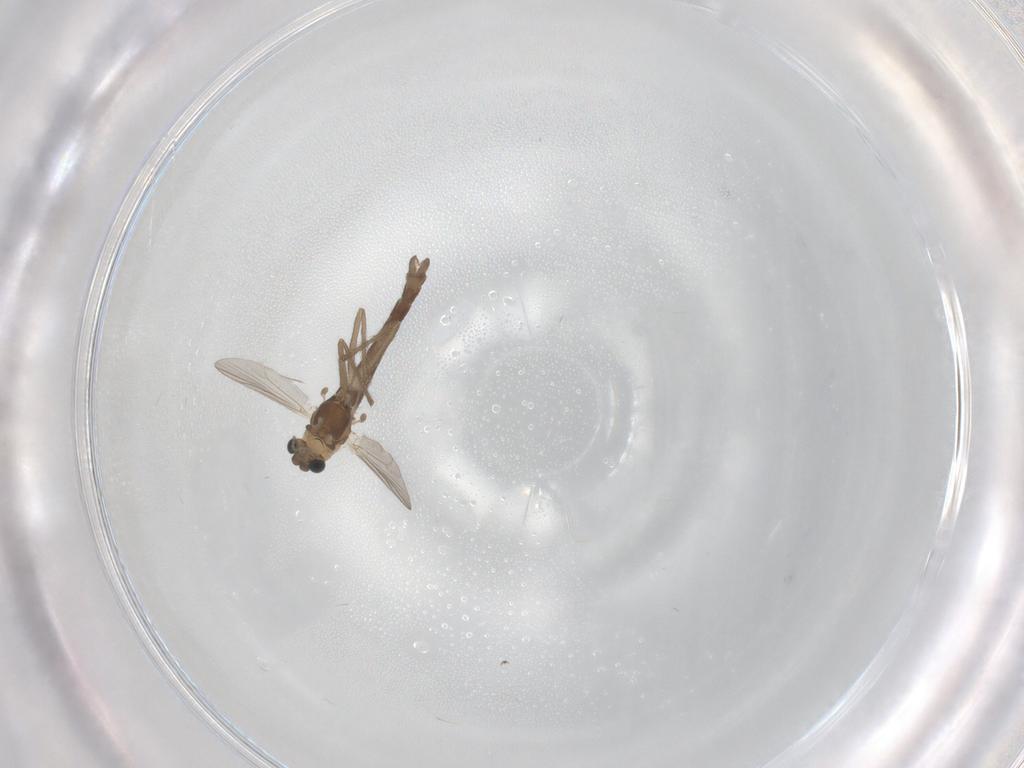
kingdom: Animalia
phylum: Arthropoda
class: Insecta
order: Diptera
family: Chironomidae
